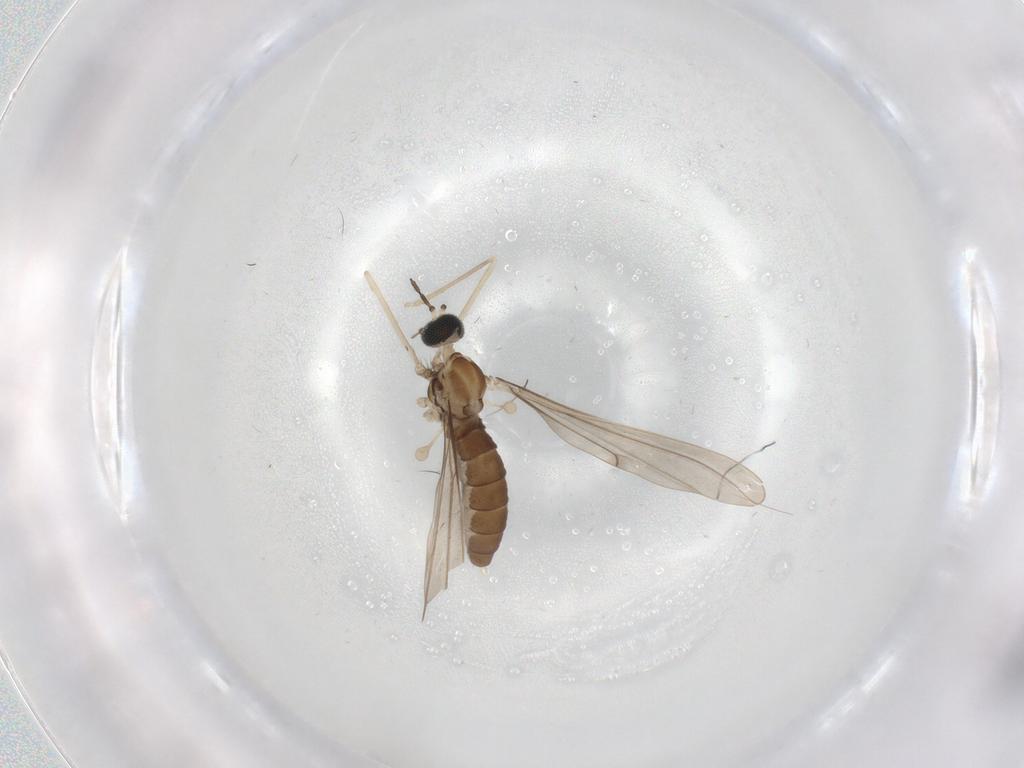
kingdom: Animalia
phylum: Arthropoda
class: Insecta
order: Diptera
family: Cecidomyiidae
